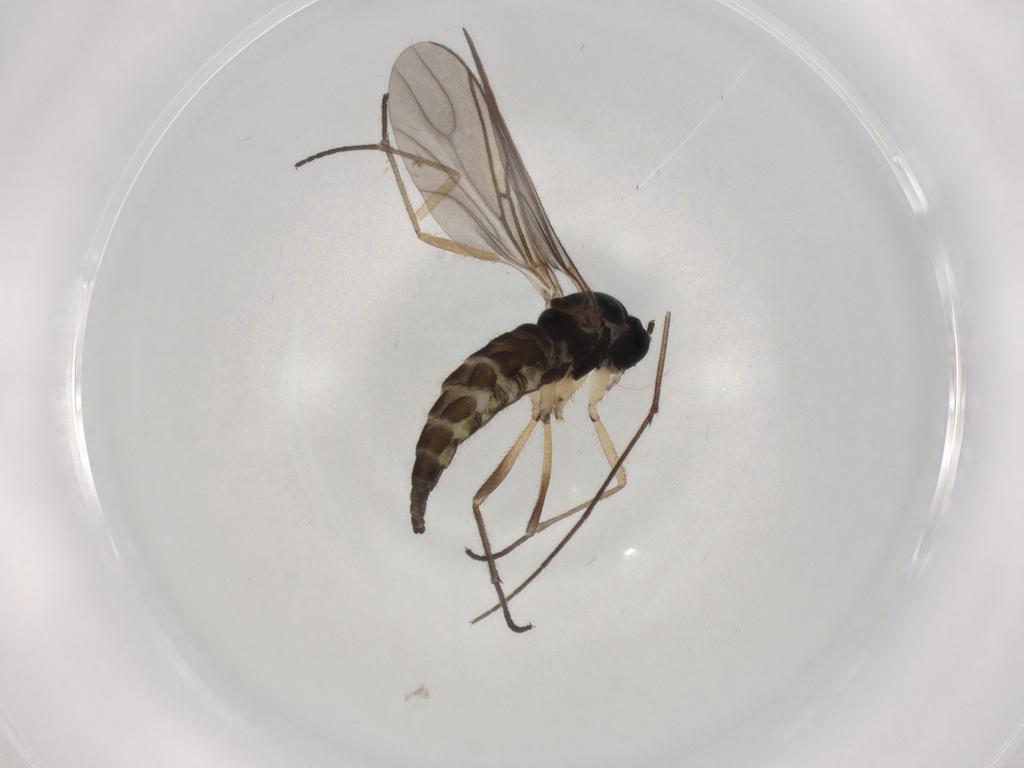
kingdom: Animalia
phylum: Arthropoda
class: Insecta
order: Diptera
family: Sciaridae
